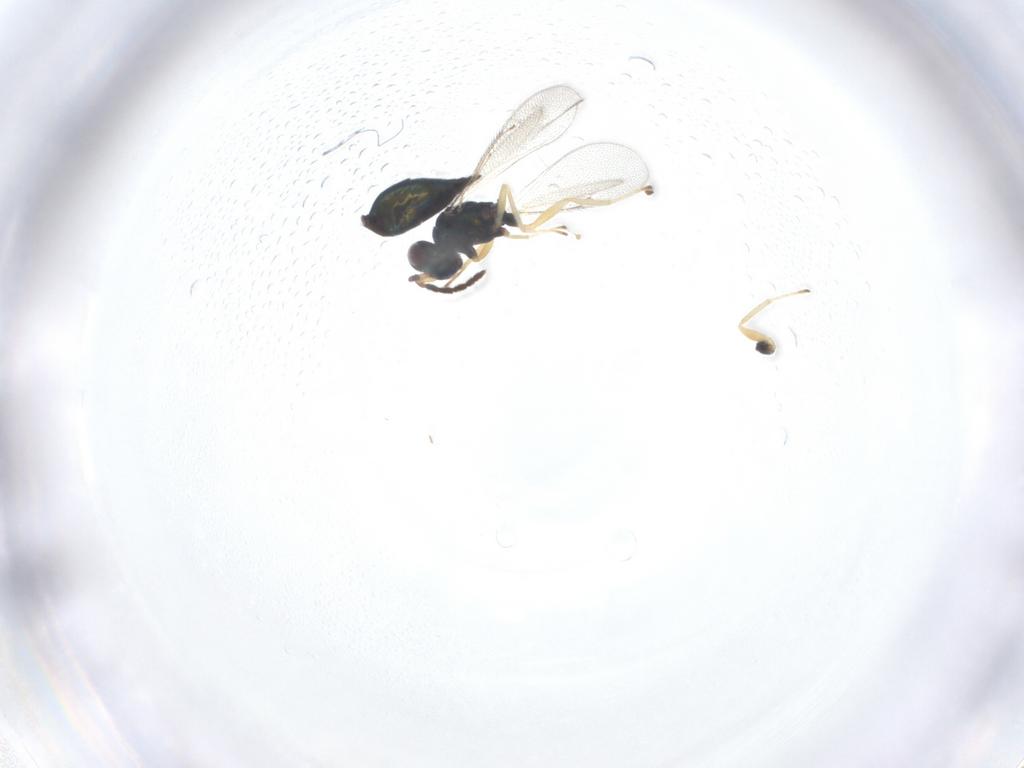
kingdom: Animalia
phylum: Arthropoda
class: Insecta
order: Hymenoptera
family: Eulophidae
